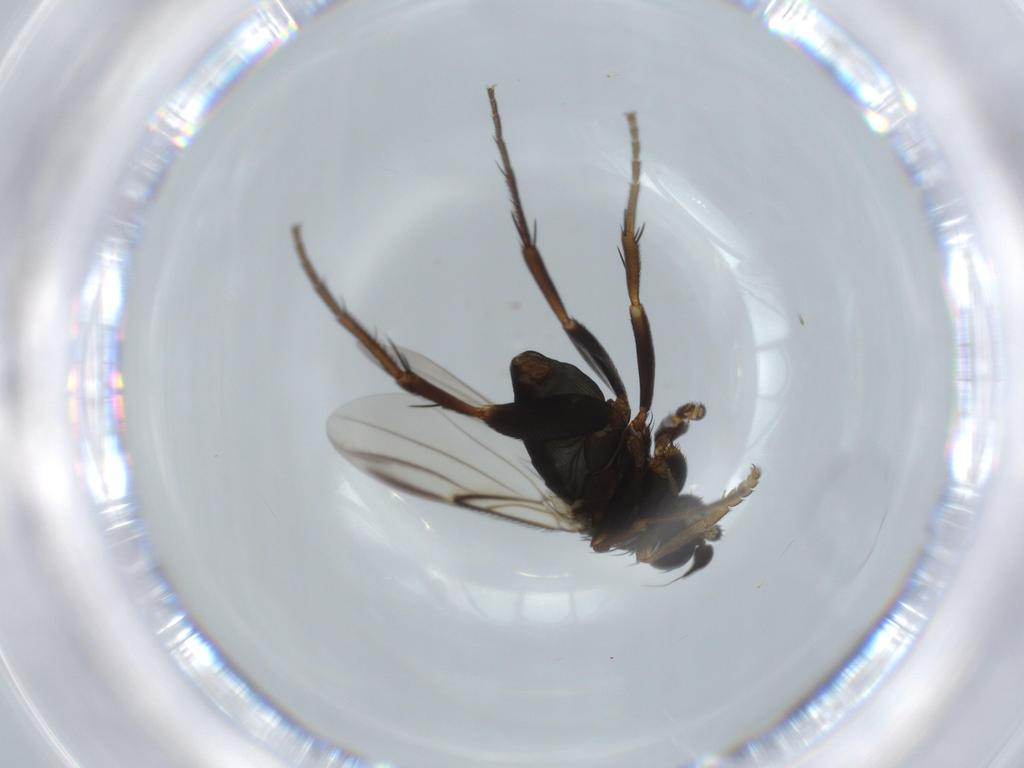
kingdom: Animalia
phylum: Arthropoda
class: Insecta
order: Diptera
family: Phoridae
